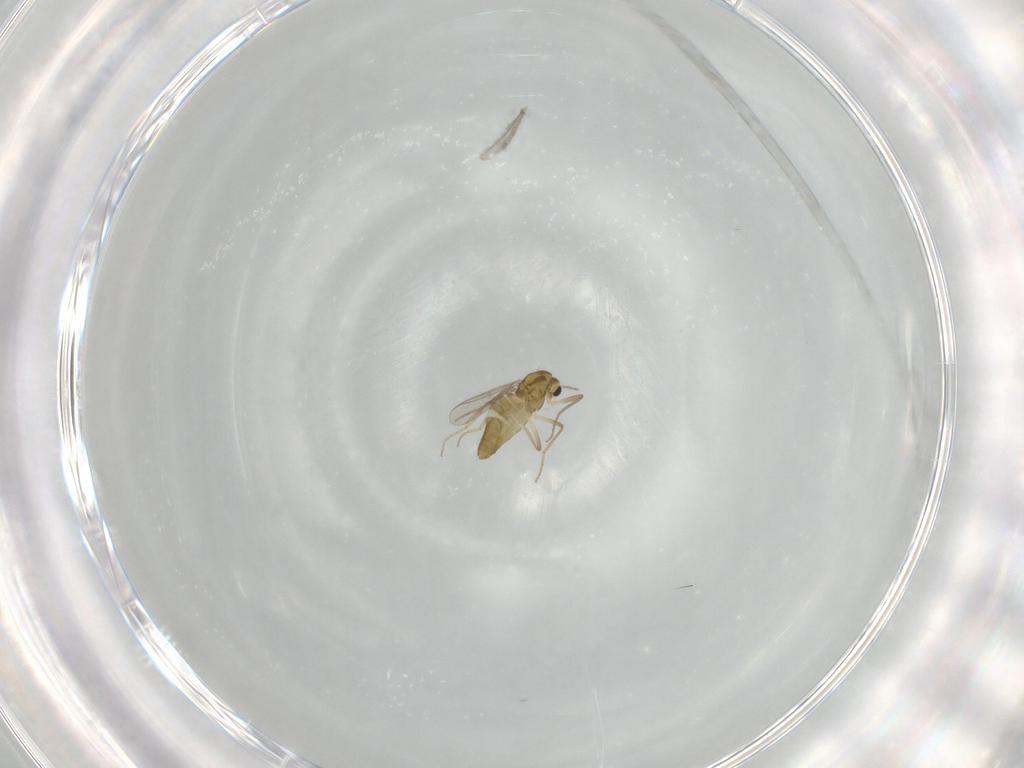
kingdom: Animalia
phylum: Arthropoda
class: Insecta
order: Diptera
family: Chironomidae
